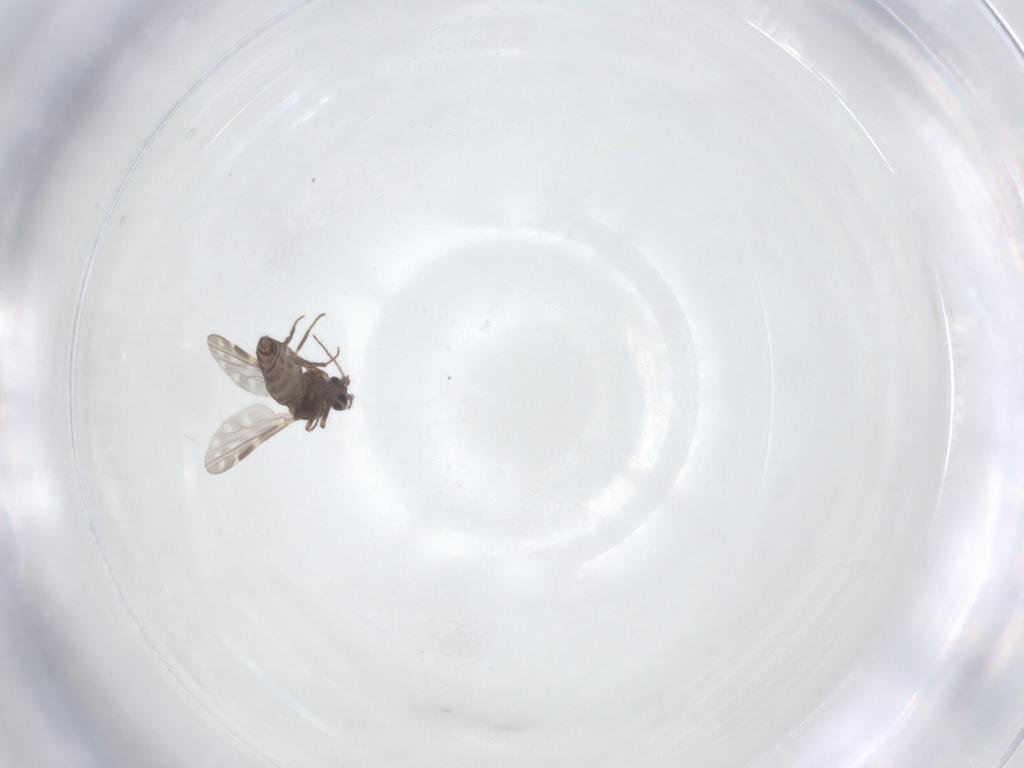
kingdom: Animalia
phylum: Arthropoda
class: Insecta
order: Diptera
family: Ceratopogonidae
